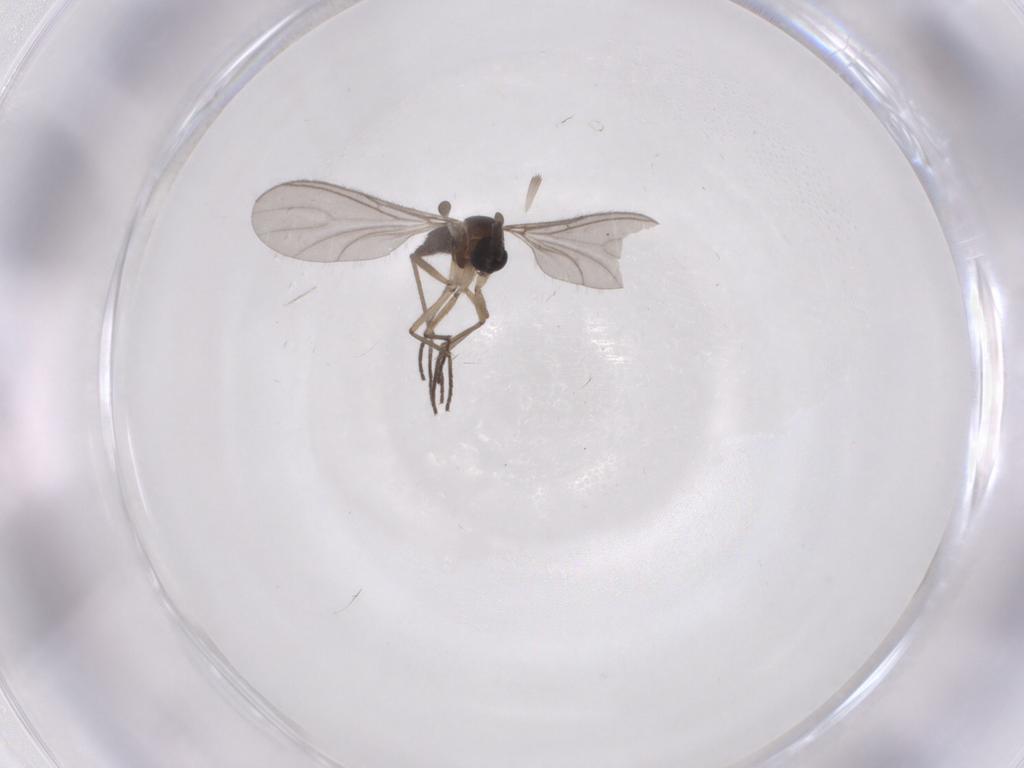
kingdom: Animalia
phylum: Arthropoda
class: Insecta
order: Diptera
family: Sciaridae
